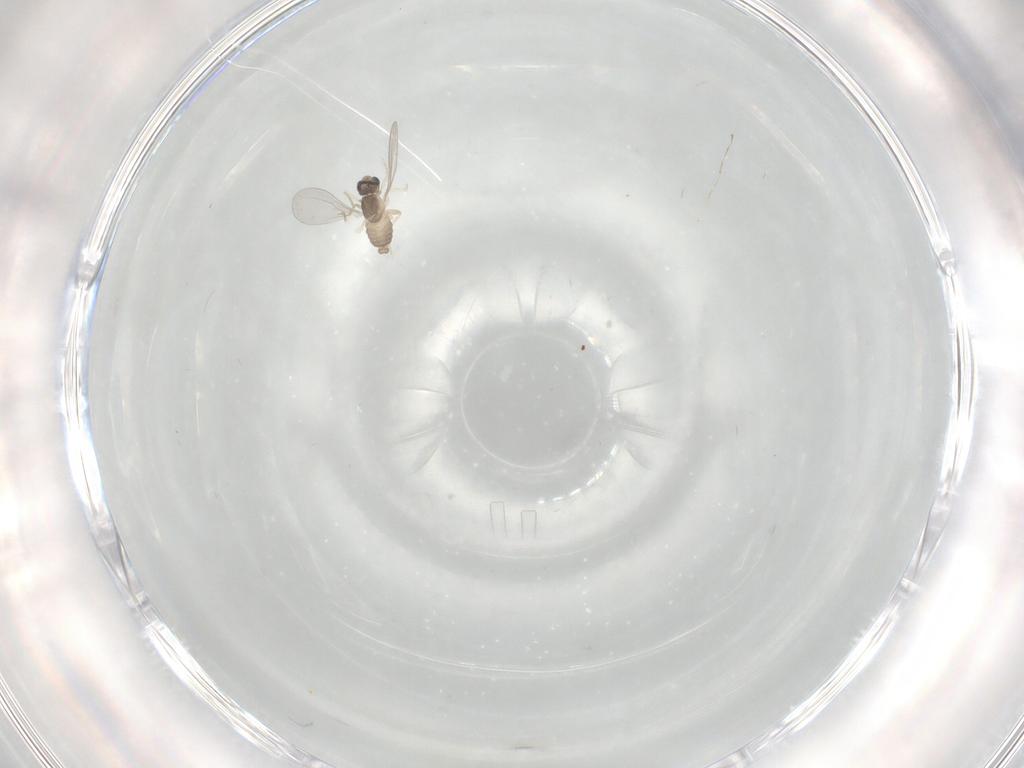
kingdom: Animalia
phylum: Arthropoda
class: Insecta
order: Diptera
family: Cecidomyiidae
